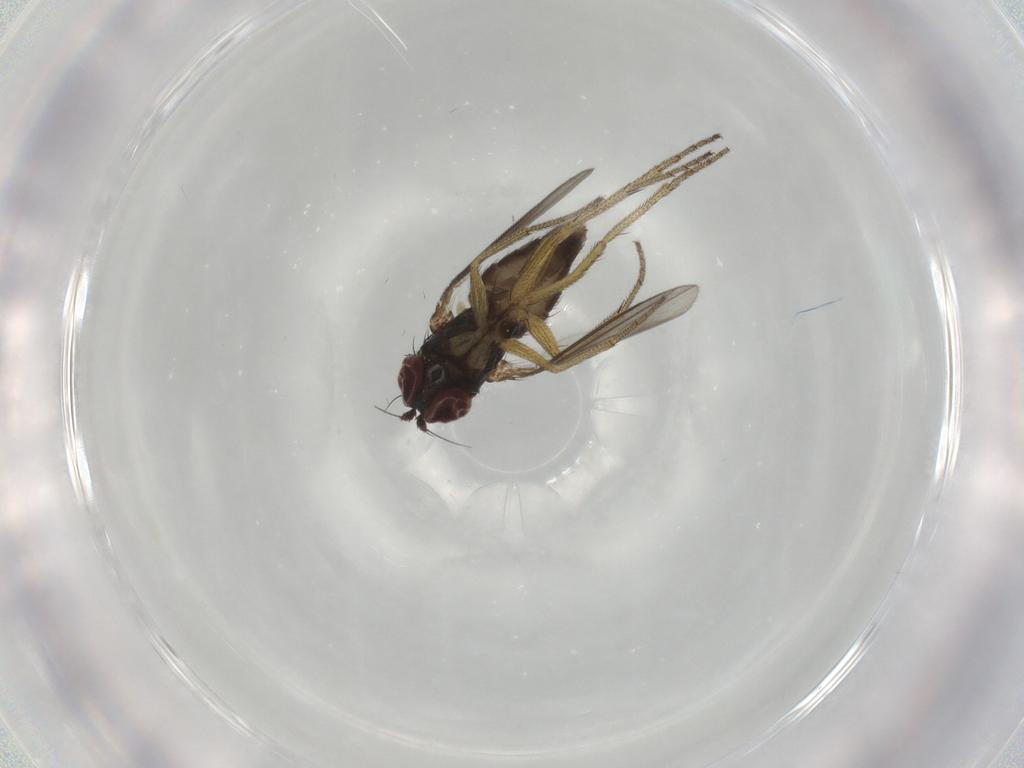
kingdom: Animalia
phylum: Arthropoda
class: Insecta
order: Diptera
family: Dolichopodidae
